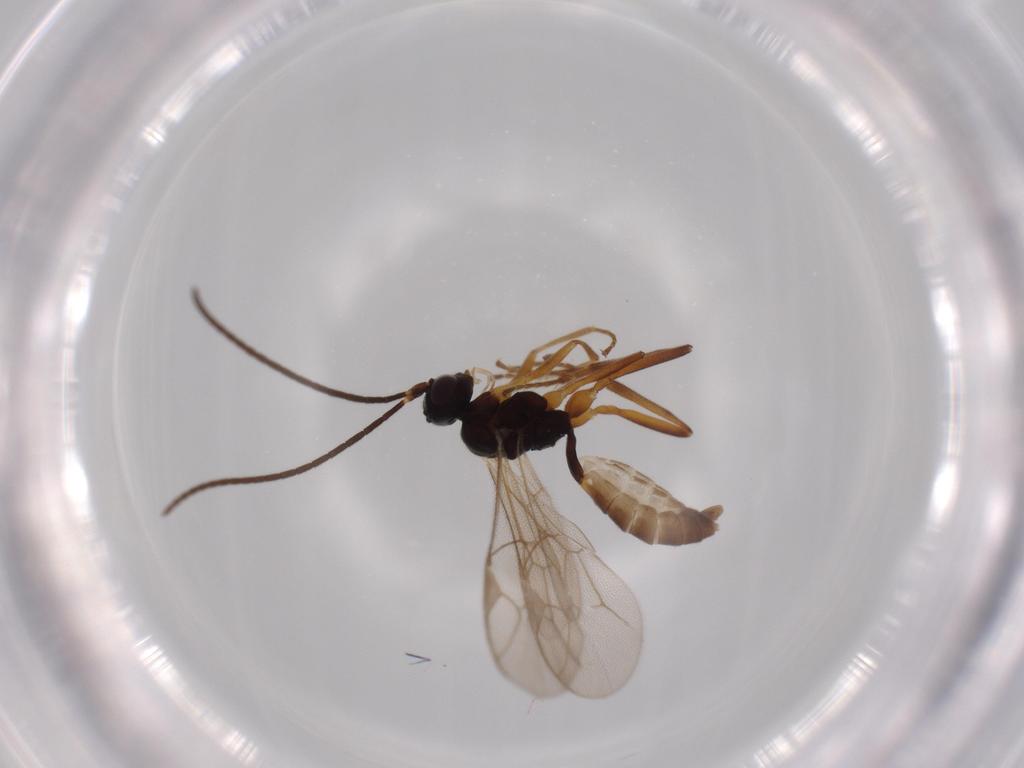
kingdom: Animalia
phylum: Arthropoda
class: Insecta
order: Hymenoptera
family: Ichneumonidae
